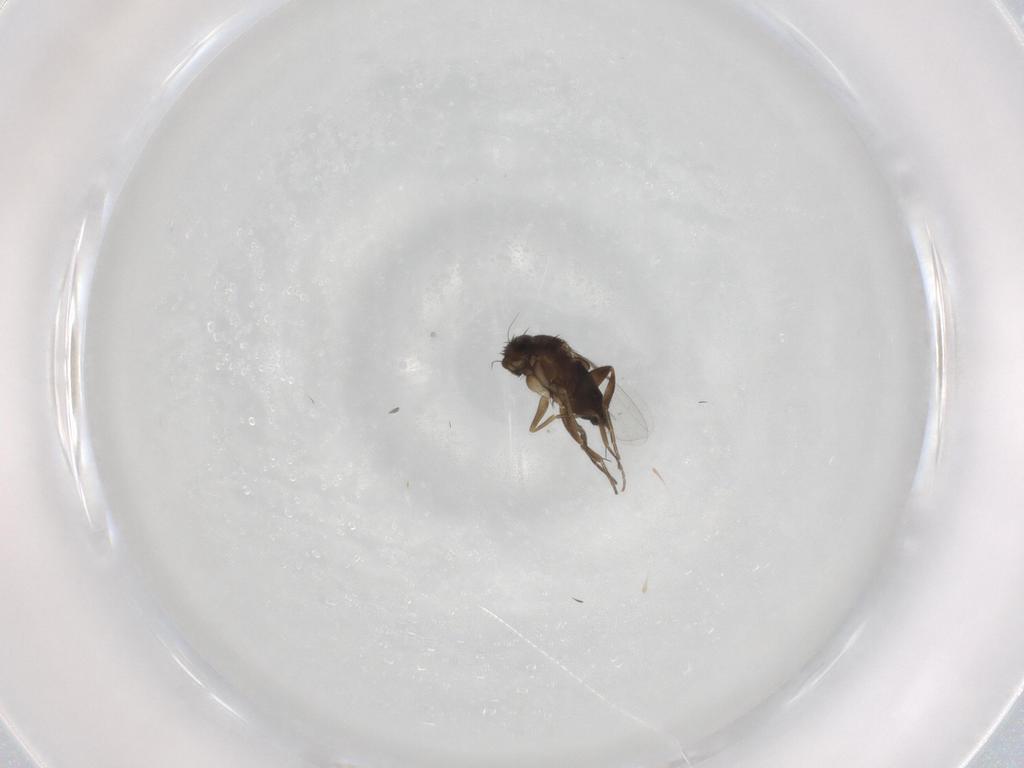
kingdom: Animalia
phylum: Arthropoda
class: Insecta
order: Diptera
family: Phoridae
